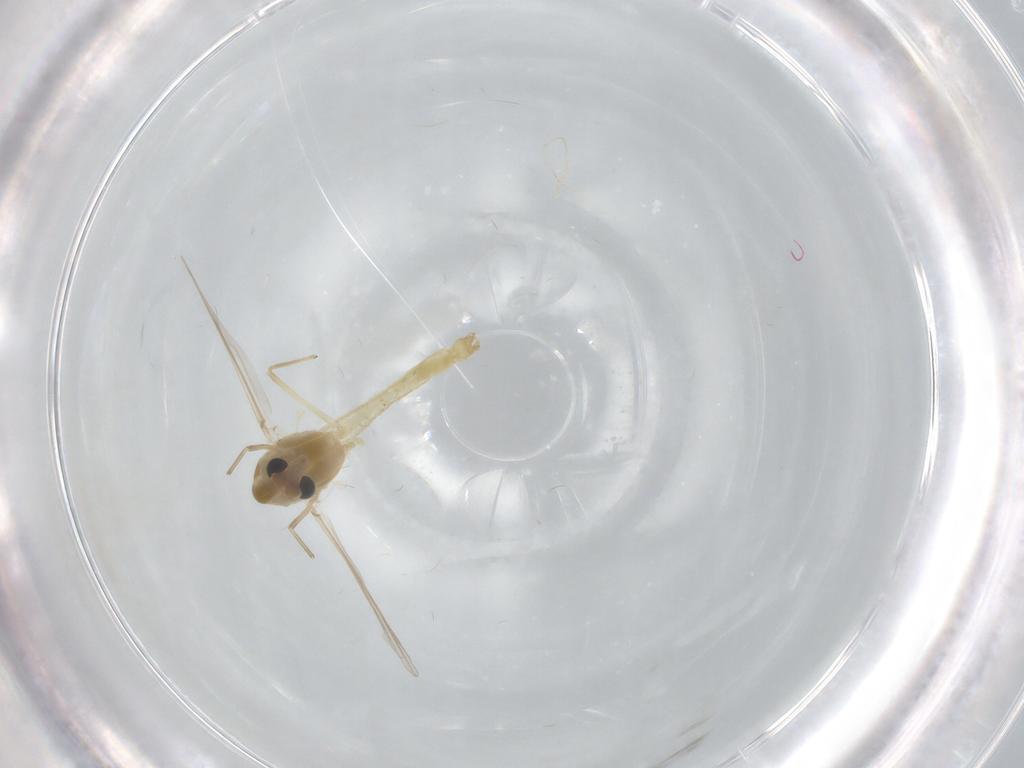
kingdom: Animalia
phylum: Arthropoda
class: Insecta
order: Diptera
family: Chironomidae
